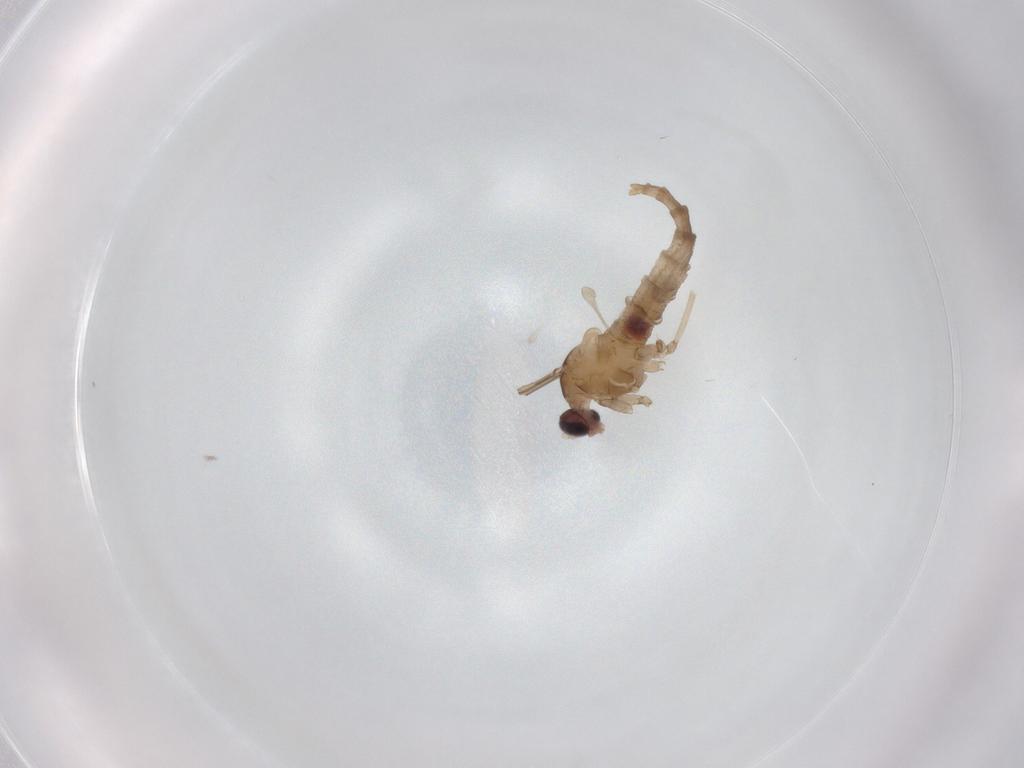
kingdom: Animalia
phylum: Arthropoda
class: Insecta
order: Diptera
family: Cecidomyiidae
